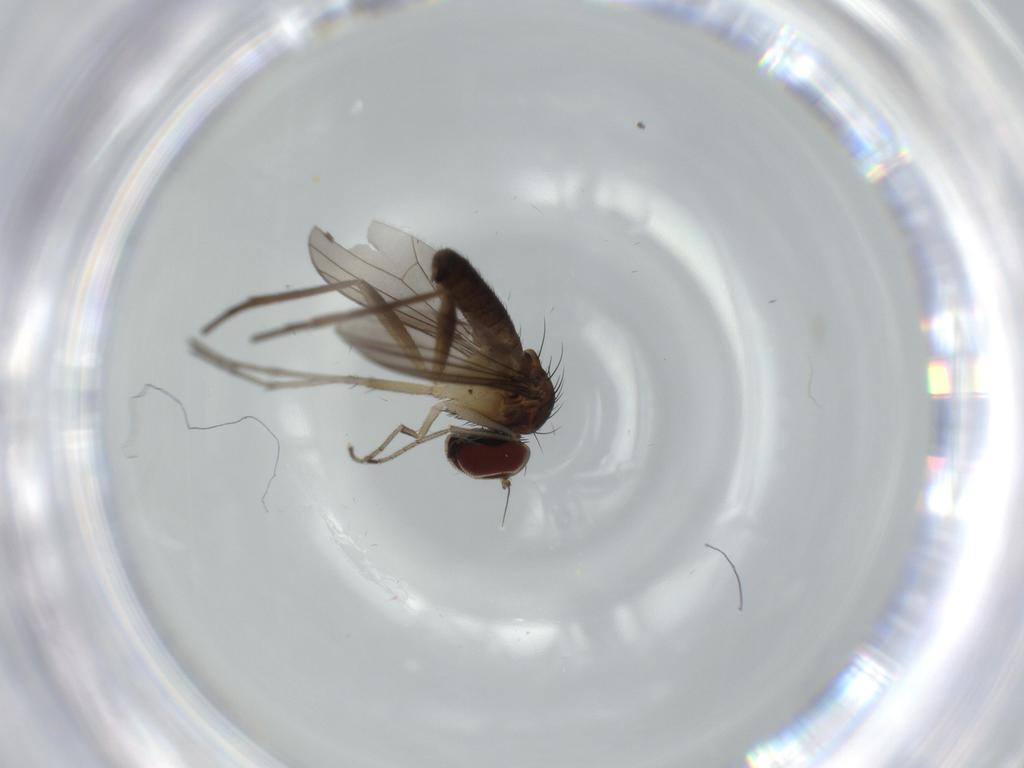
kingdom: Animalia
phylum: Arthropoda
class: Insecta
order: Diptera
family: Dolichopodidae
